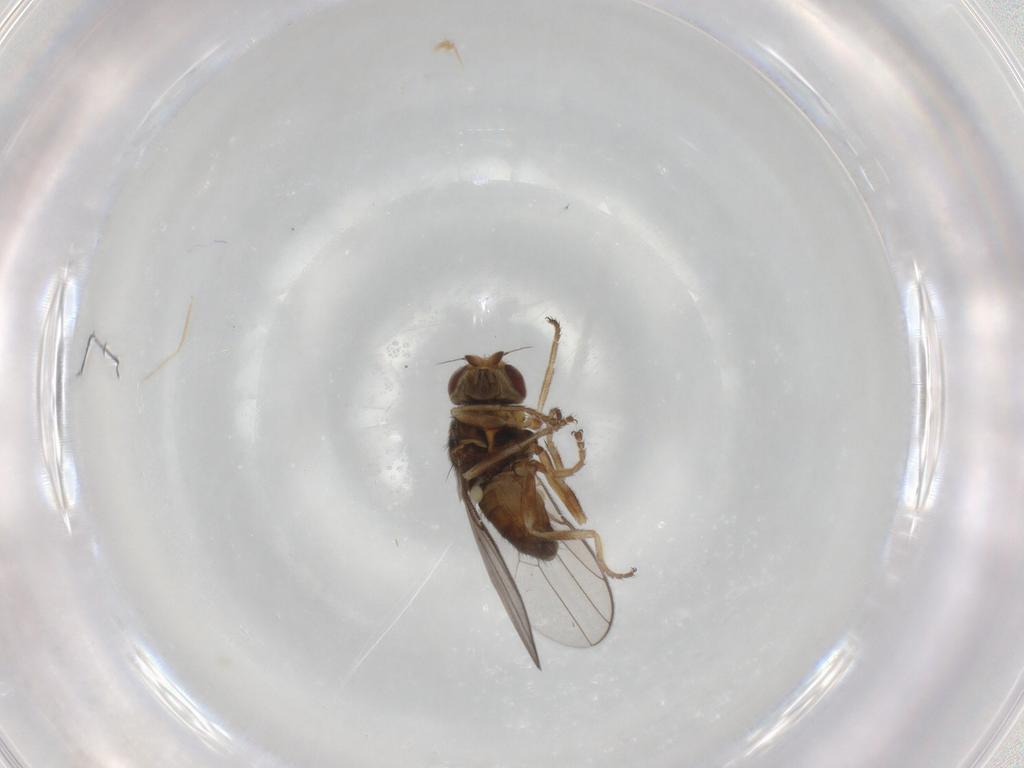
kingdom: Animalia
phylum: Arthropoda
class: Insecta
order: Diptera
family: Chloropidae
